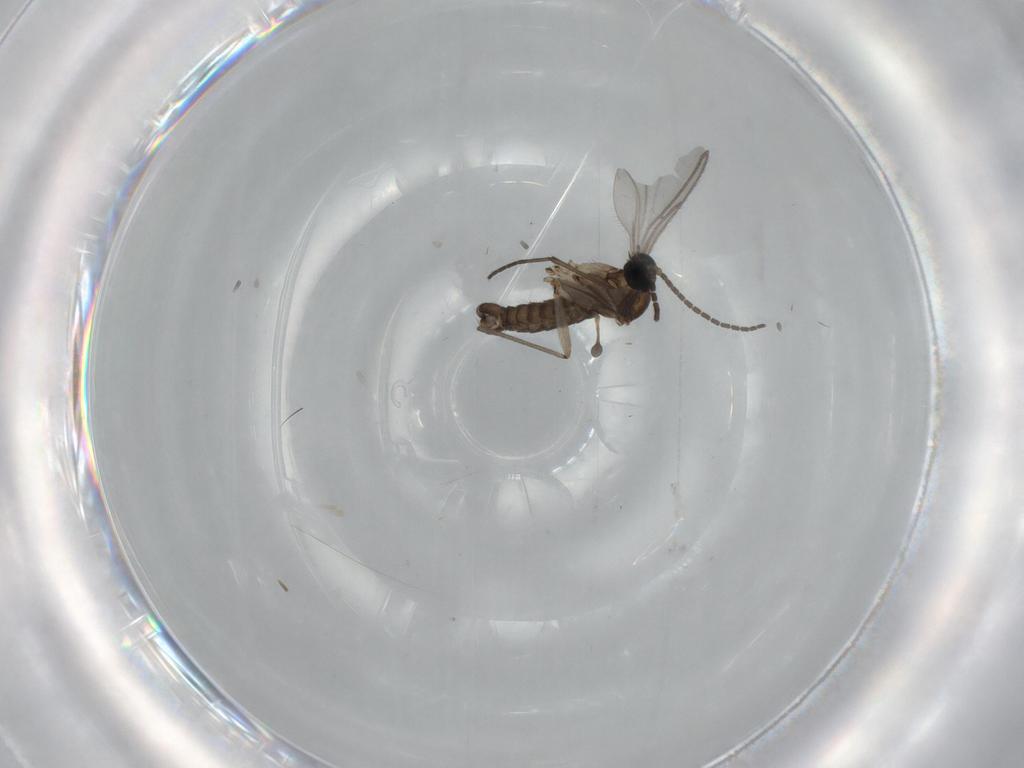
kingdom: Animalia
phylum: Arthropoda
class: Insecta
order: Diptera
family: Sciaridae
